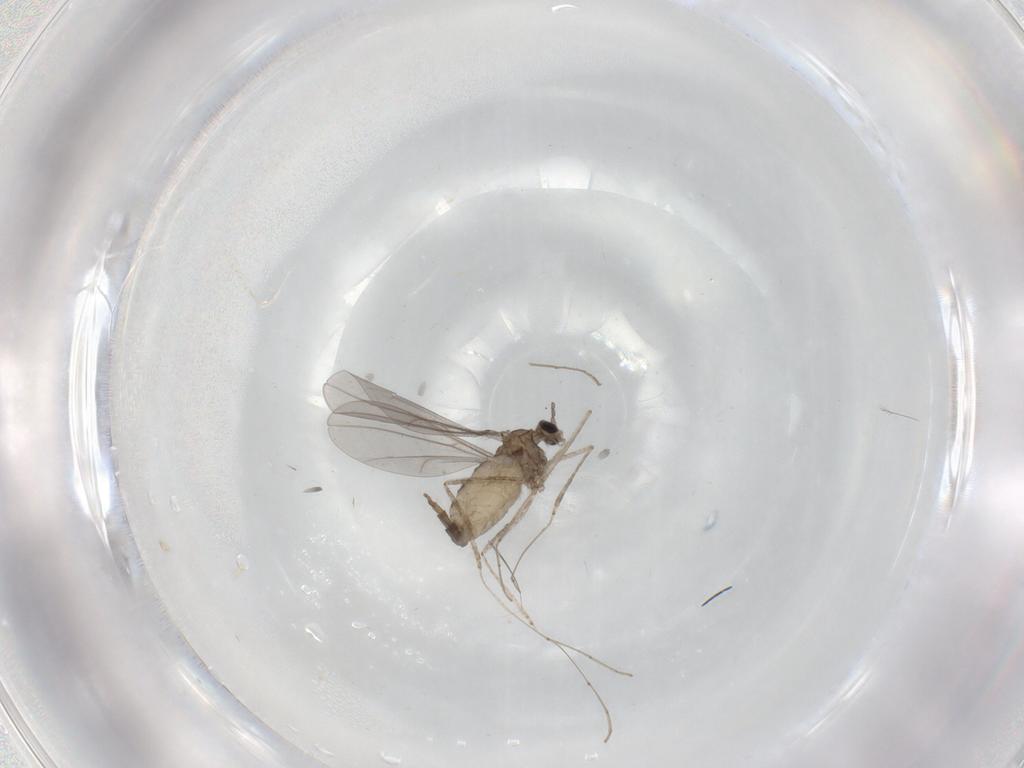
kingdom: Animalia
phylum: Arthropoda
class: Insecta
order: Diptera
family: Cecidomyiidae
